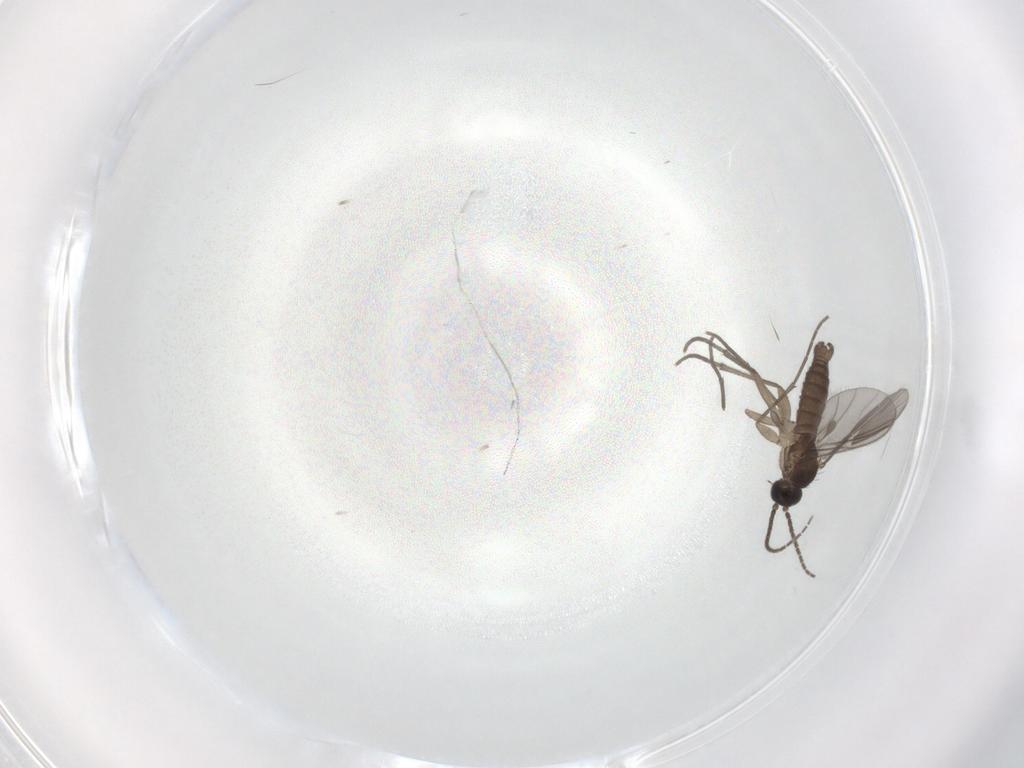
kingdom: Animalia
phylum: Arthropoda
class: Insecta
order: Diptera
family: Sciaridae
